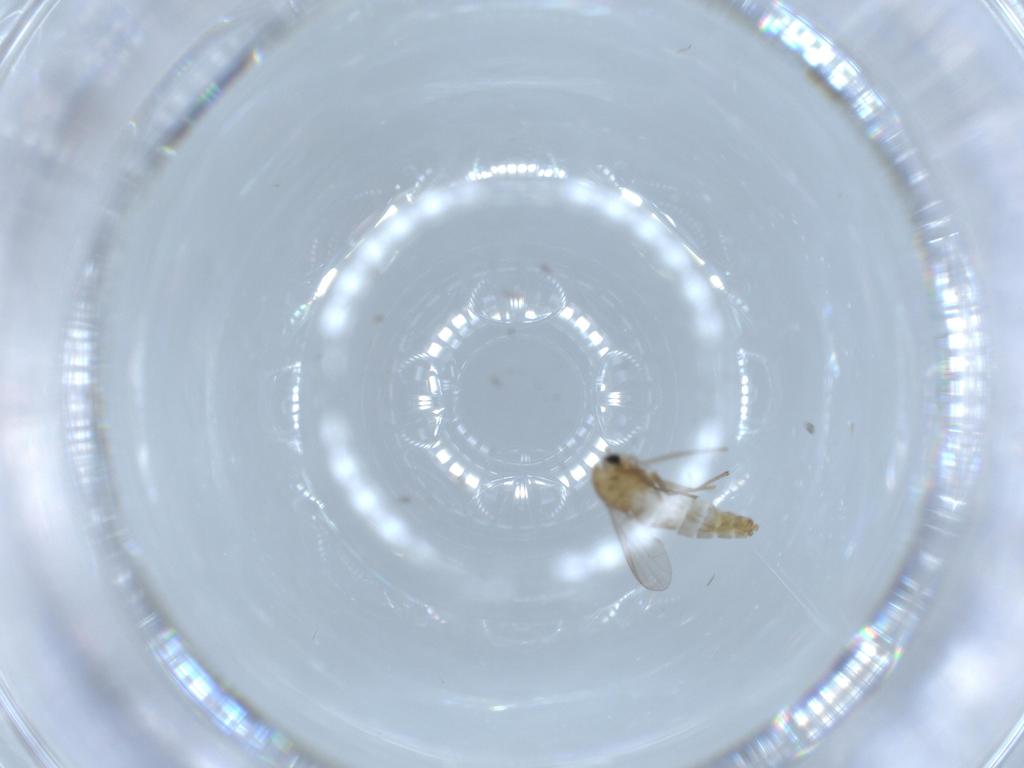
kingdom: Animalia
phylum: Arthropoda
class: Insecta
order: Diptera
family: Chironomidae
